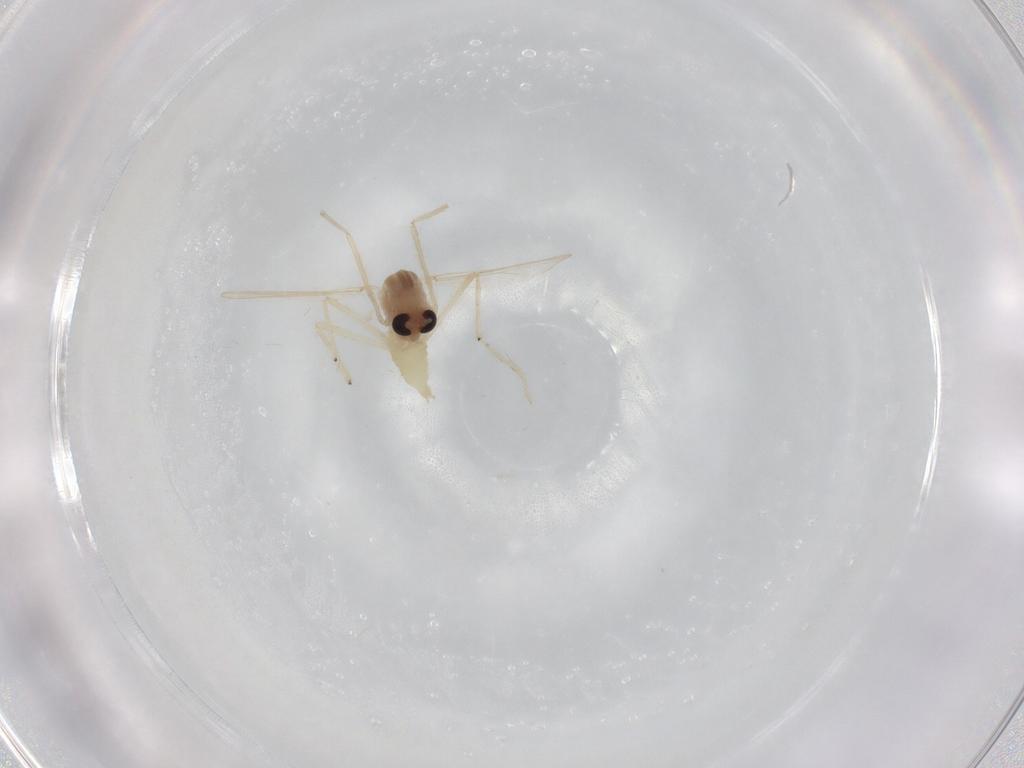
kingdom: Animalia
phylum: Arthropoda
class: Insecta
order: Diptera
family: Chironomidae
